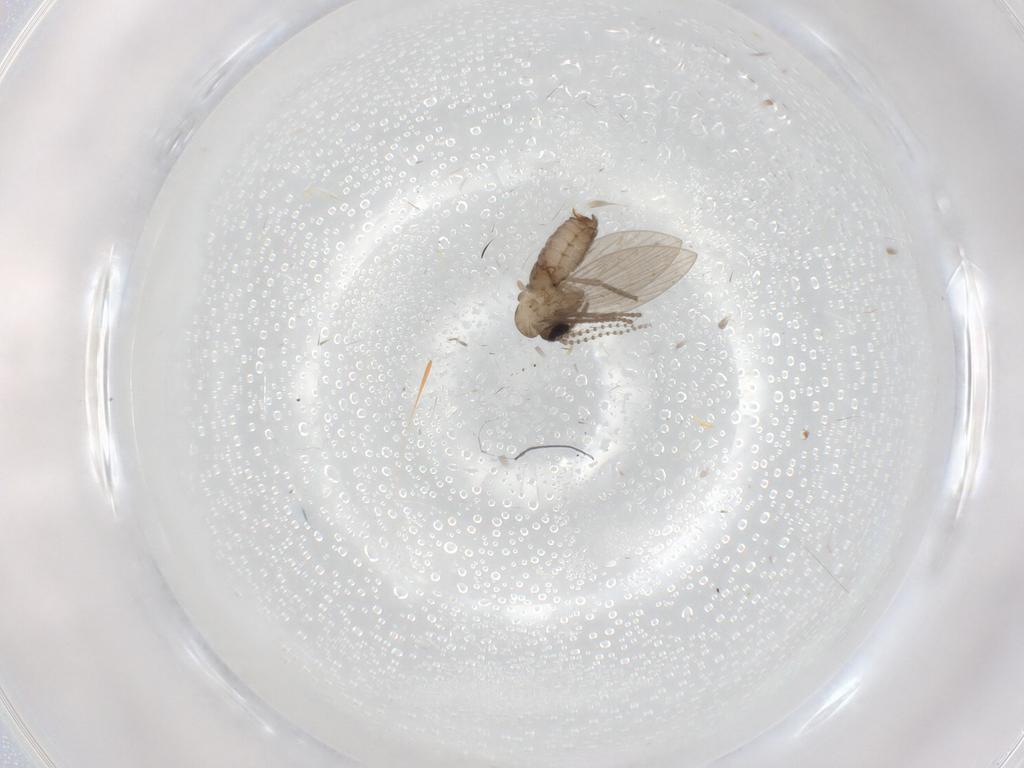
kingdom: Animalia
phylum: Arthropoda
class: Insecta
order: Diptera
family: Psychodidae
